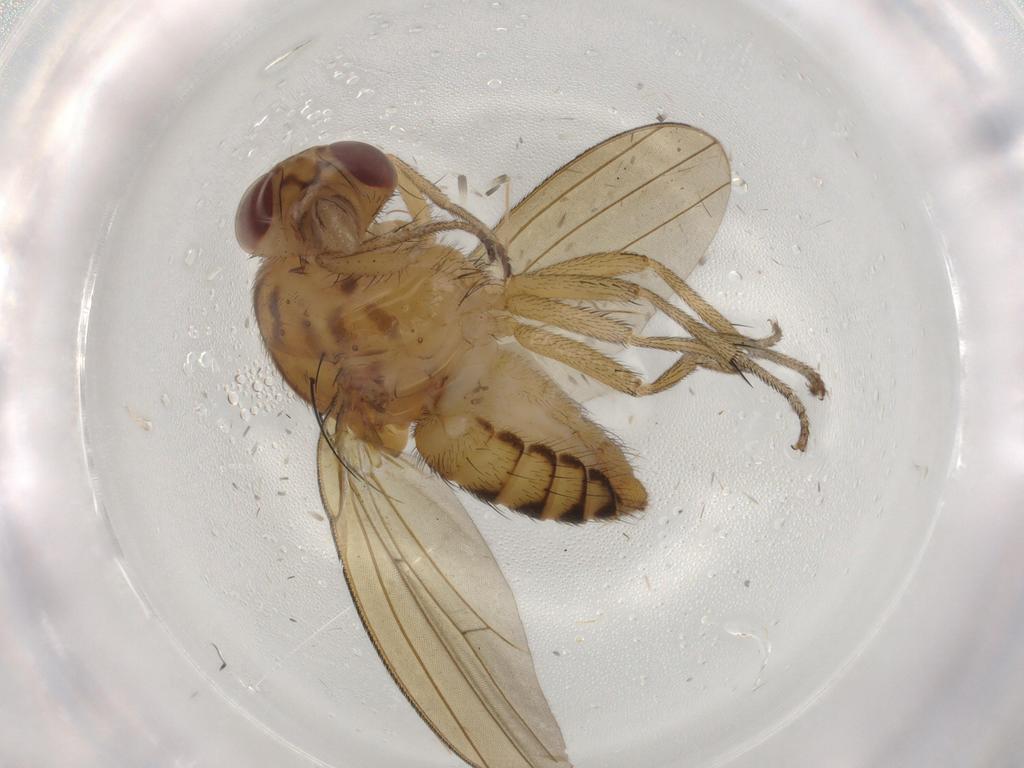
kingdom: Animalia
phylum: Arthropoda
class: Insecta
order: Diptera
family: Lauxaniidae
